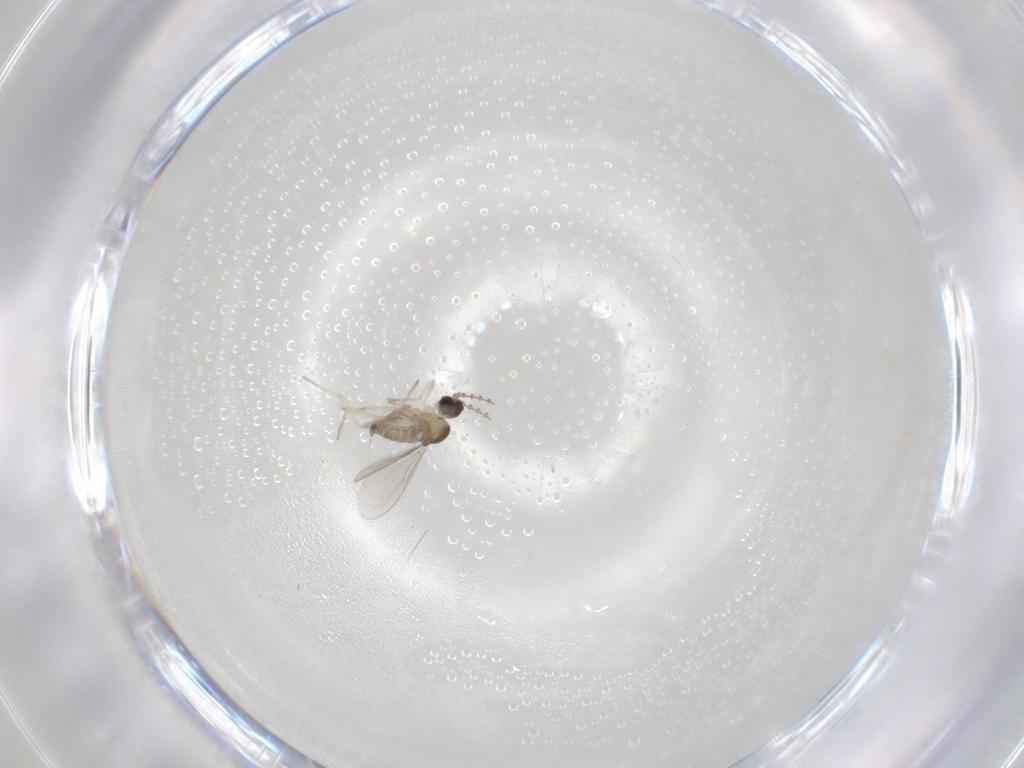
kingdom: Animalia
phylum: Arthropoda
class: Insecta
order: Diptera
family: Cecidomyiidae
